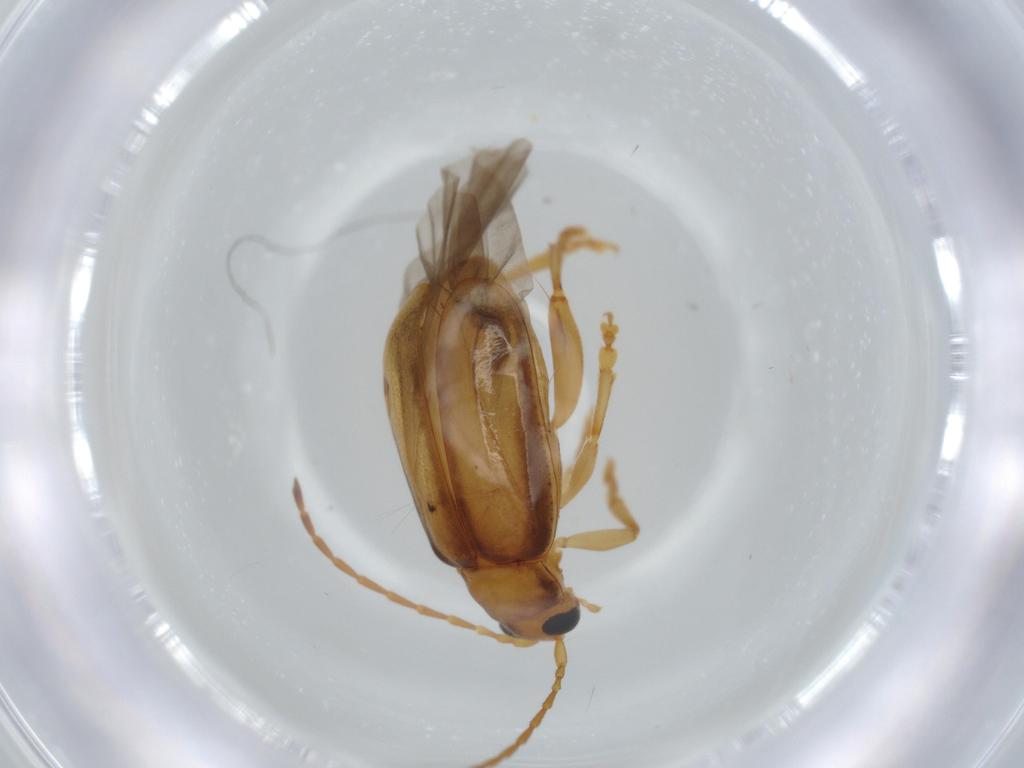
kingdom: Animalia
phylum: Arthropoda
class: Insecta
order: Coleoptera
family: Chrysomelidae
